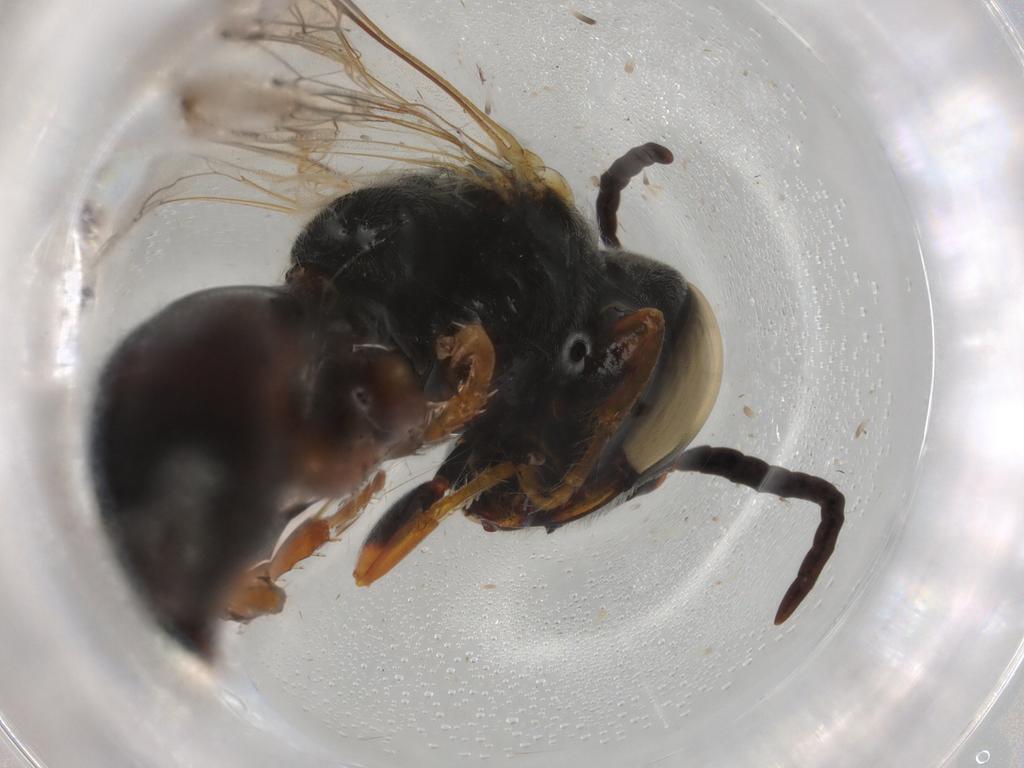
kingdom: Animalia
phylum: Arthropoda
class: Insecta
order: Hymenoptera
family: Crabronidae
